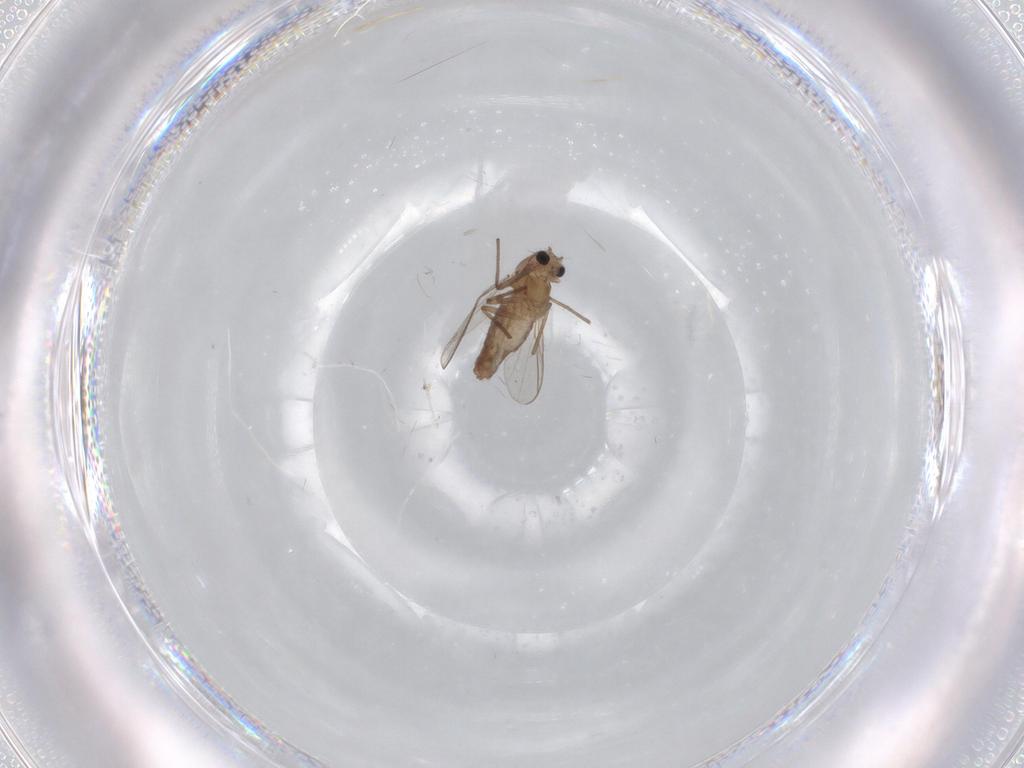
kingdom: Animalia
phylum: Arthropoda
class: Insecta
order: Diptera
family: Chironomidae
